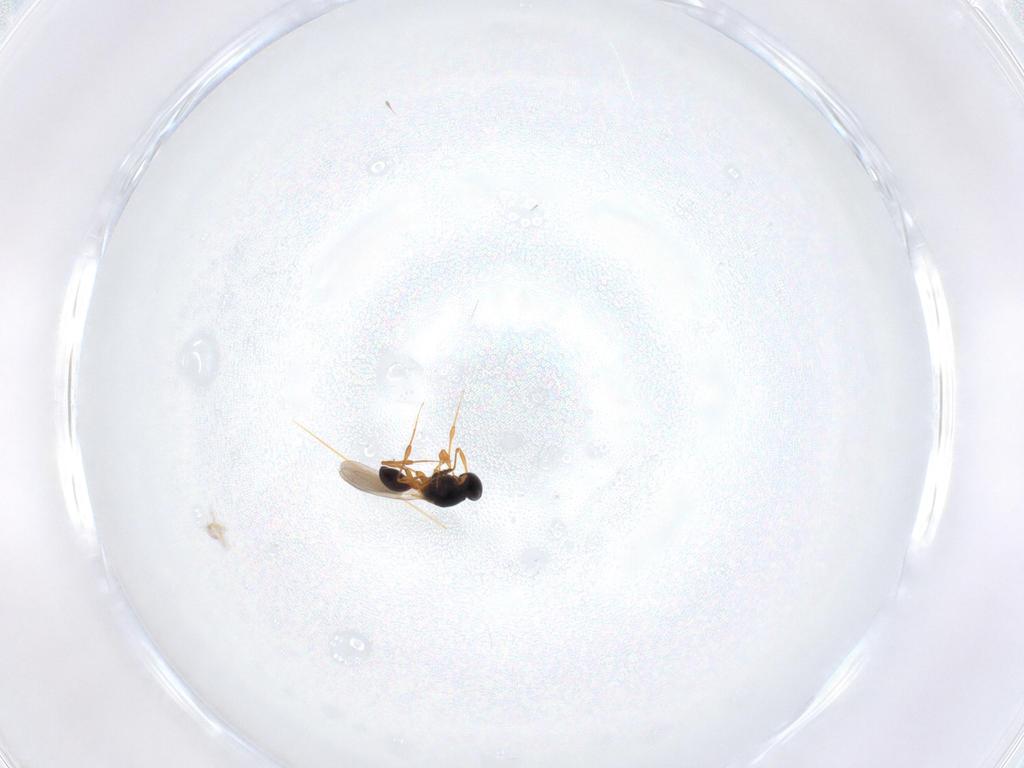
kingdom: Animalia
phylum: Arthropoda
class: Insecta
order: Hymenoptera
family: Platygastridae
